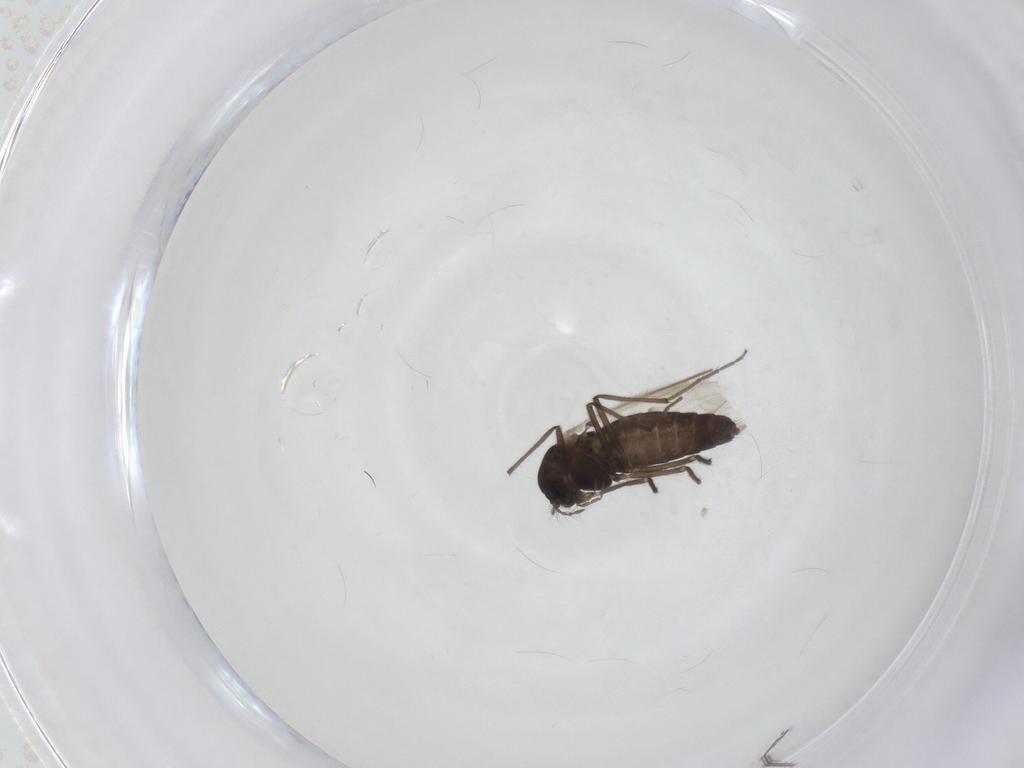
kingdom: Animalia
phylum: Arthropoda
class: Insecta
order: Diptera
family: Chironomidae
